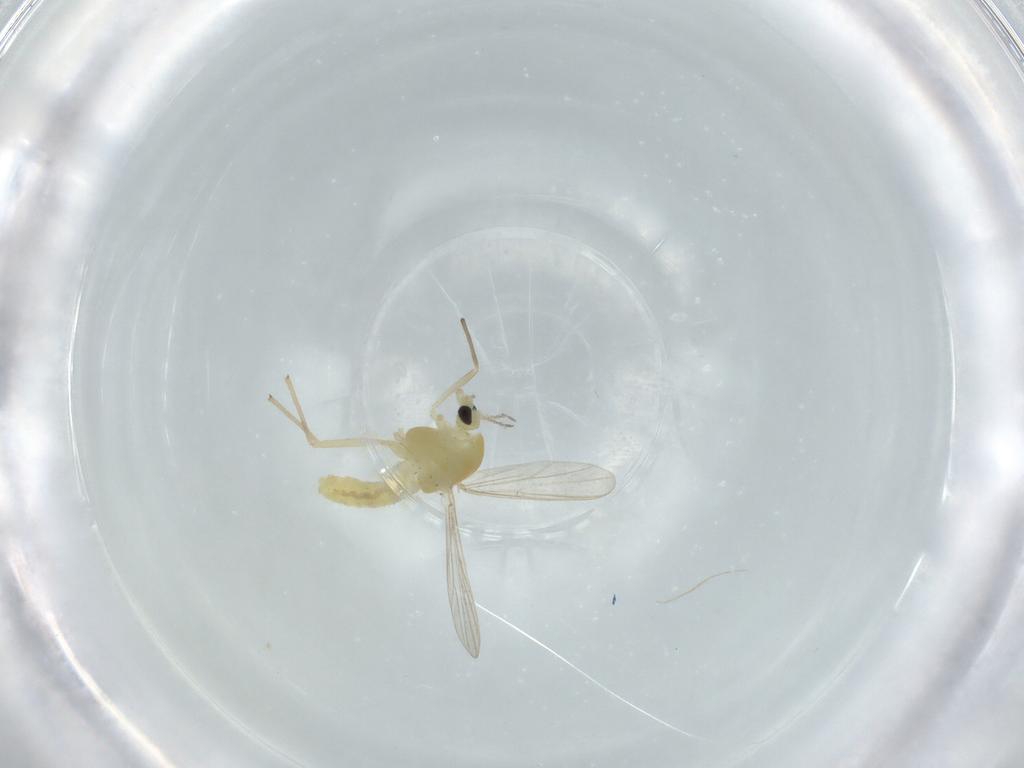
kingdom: Animalia
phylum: Arthropoda
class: Insecta
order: Diptera
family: Chironomidae
